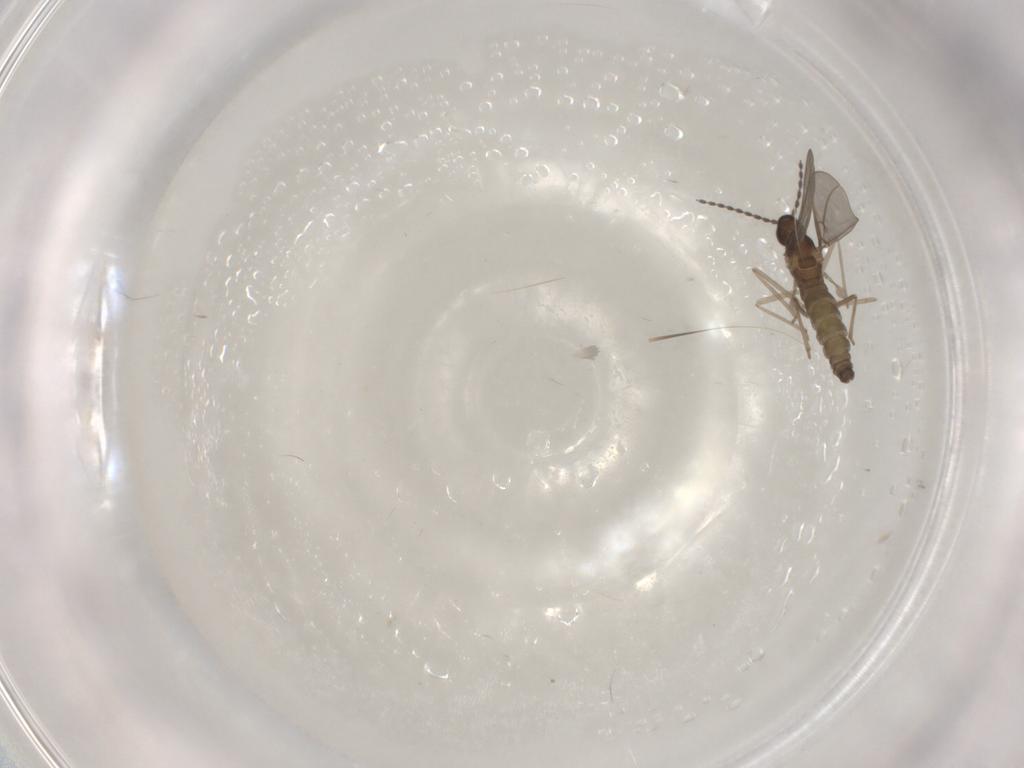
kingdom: Animalia
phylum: Arthropoda
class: Insecta
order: Diptera
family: Cecidomyiidae
